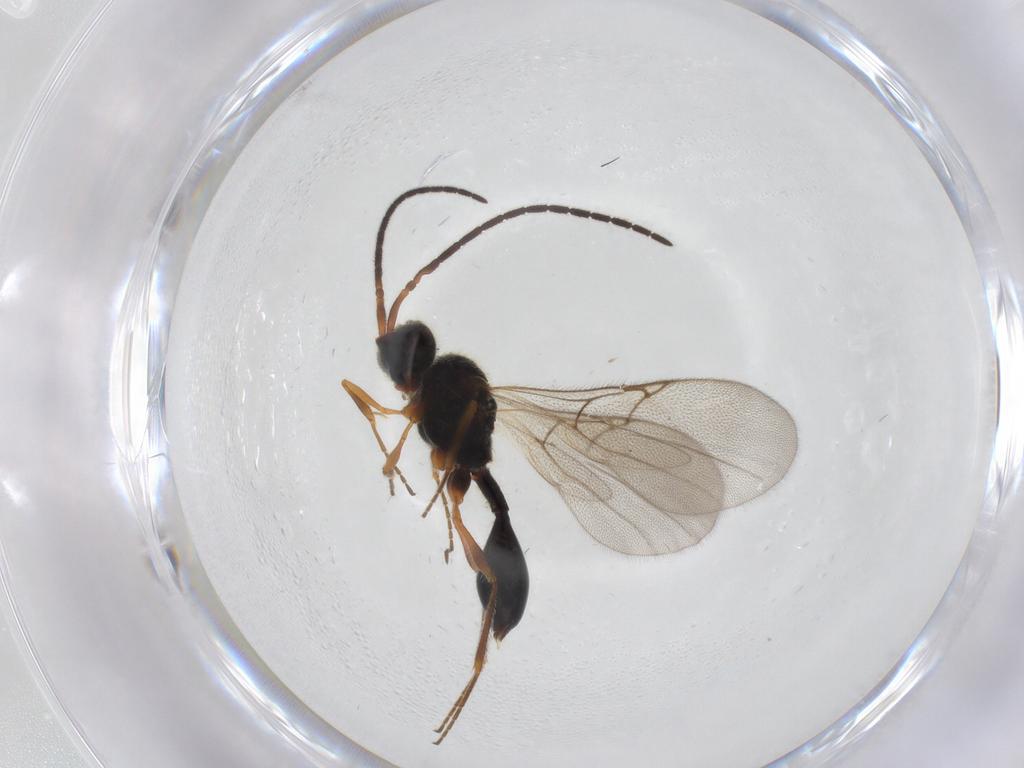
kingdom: Animalia
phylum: Arthropoda
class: Insecta
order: Hymenoptera
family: Diapriidae
